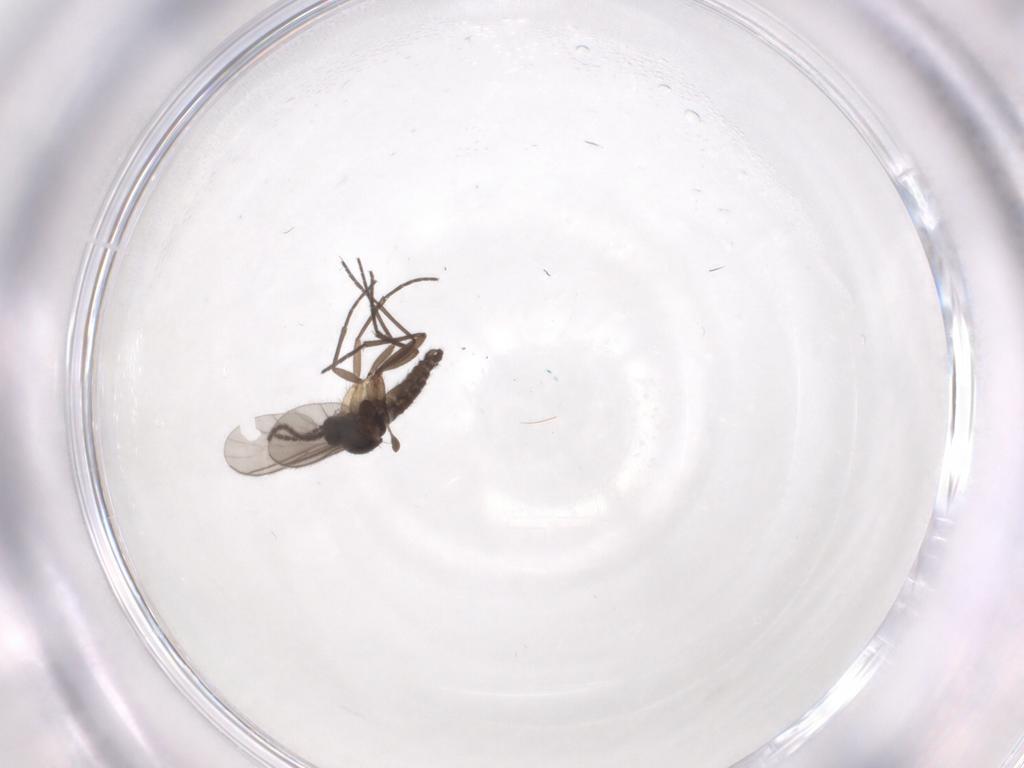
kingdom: Animalia
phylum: Arthropoda
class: Insecta
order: Diptera
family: Sciaridae
